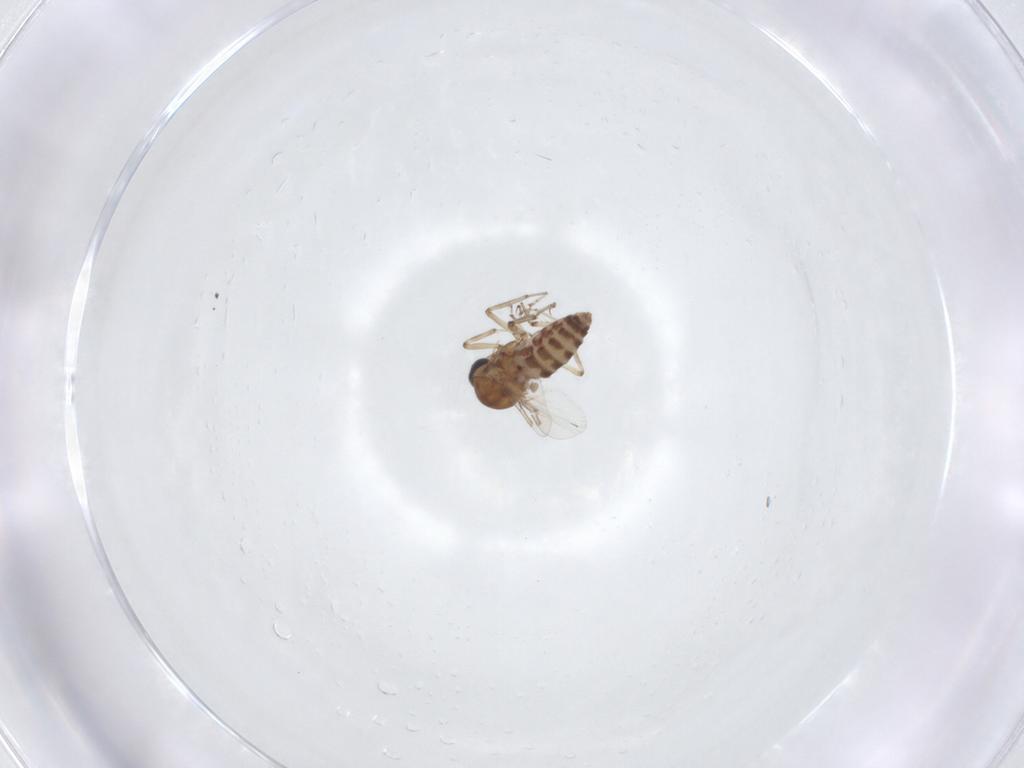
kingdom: Animalia
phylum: Arthropoda
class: Insecta
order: Diptera
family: Ceratopogonidae
